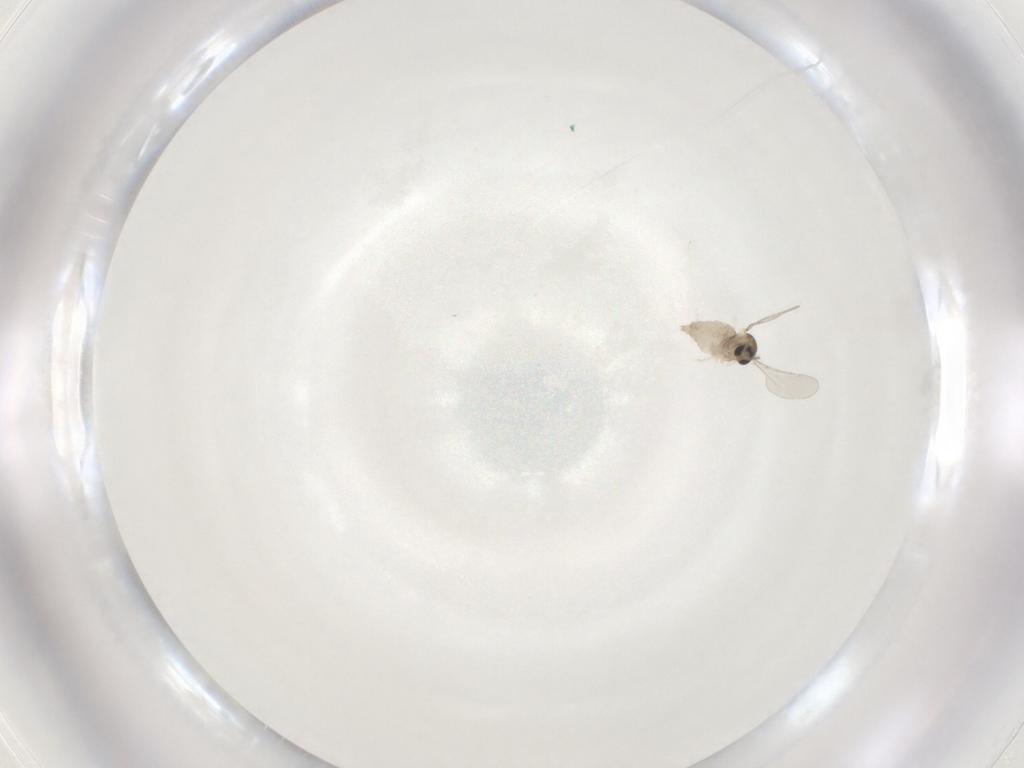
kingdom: Animalia
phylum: Arthropoda
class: Insecta
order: Diptera
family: Cecidomyiidae
